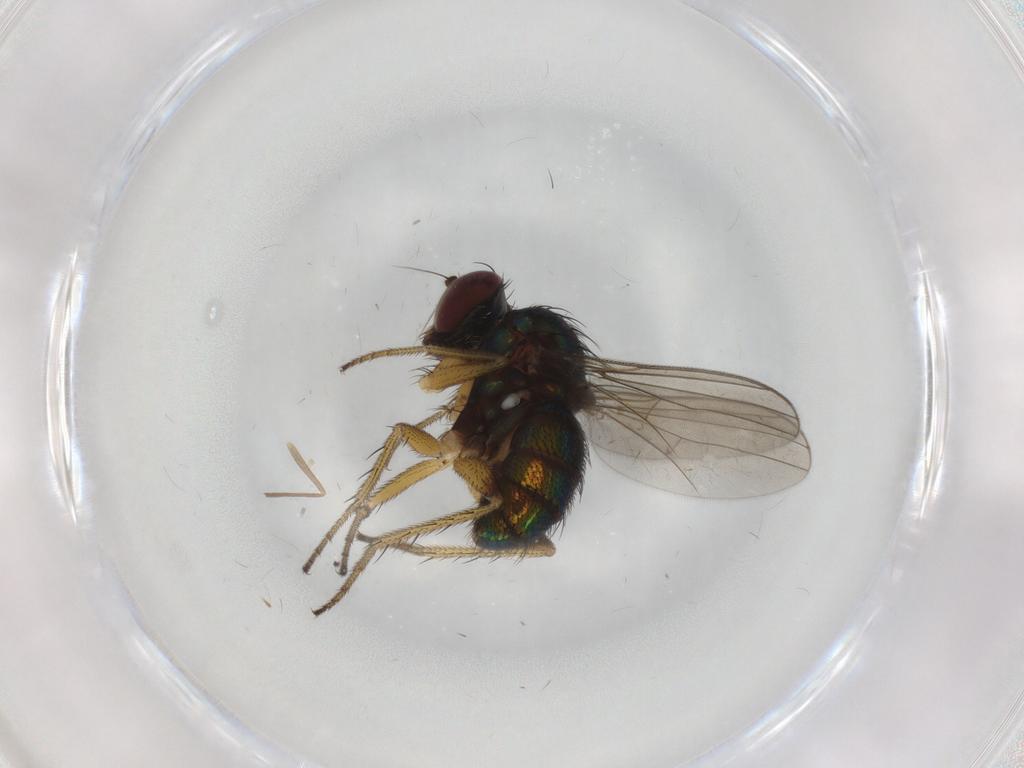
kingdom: Animalia
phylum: Arthropoda
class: Insecta
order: Diptera
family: Dolichopodidae
